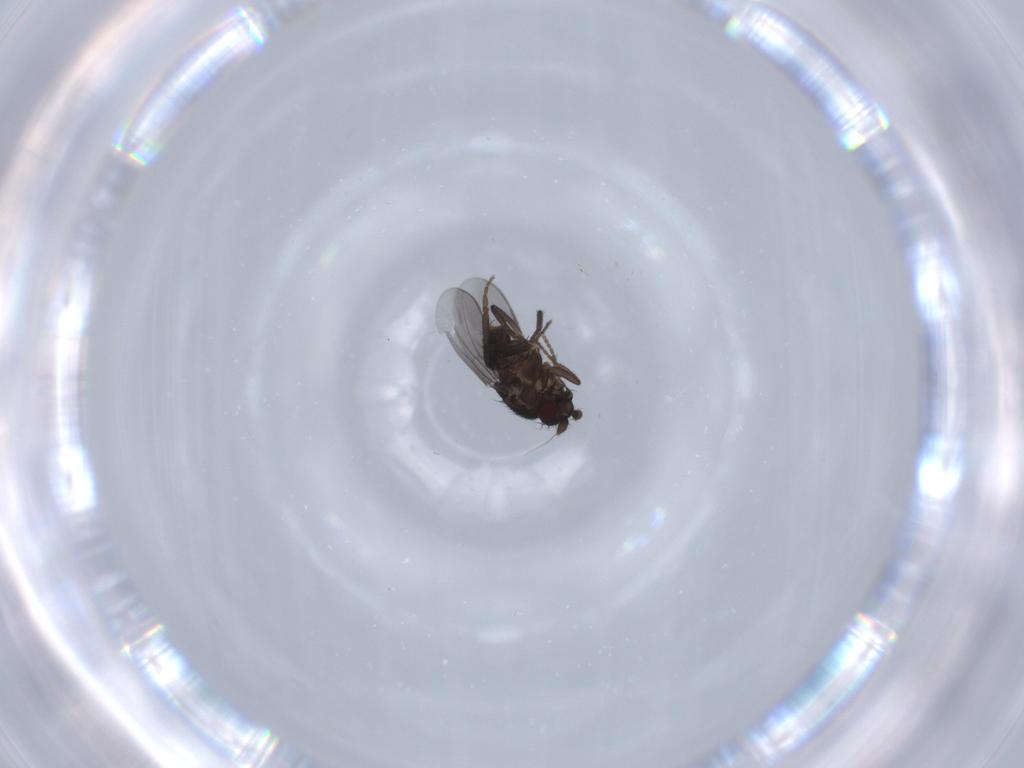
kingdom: Animalia
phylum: Arthropoda
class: Insecta
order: Diptera
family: Sphaeroceridae
